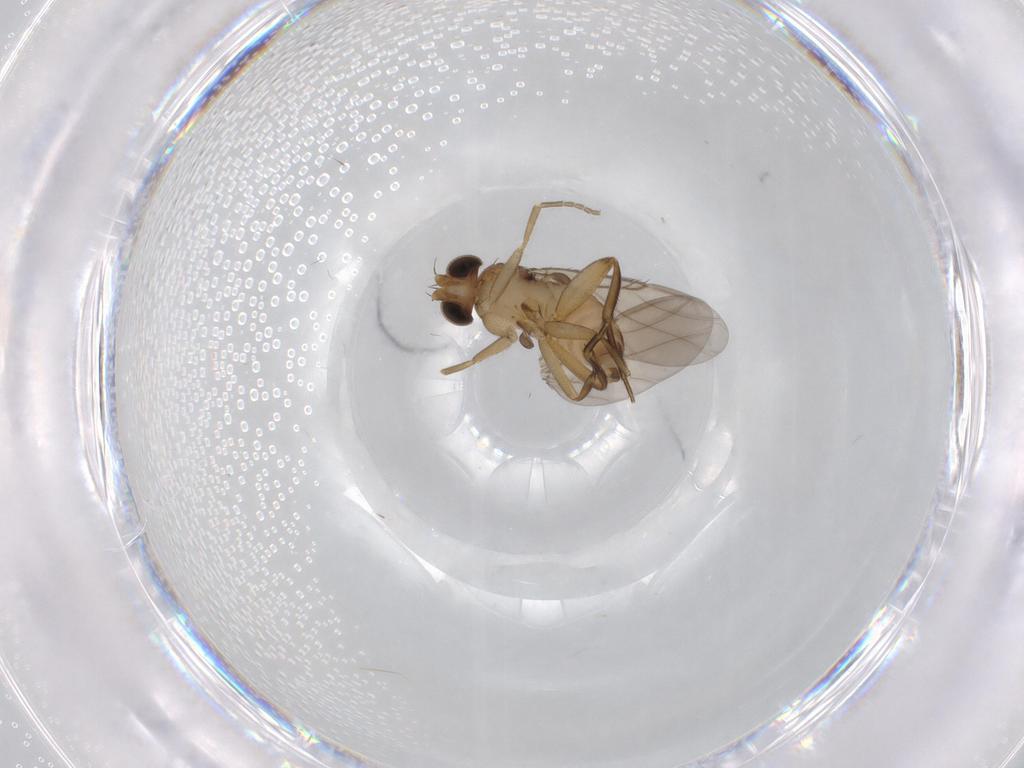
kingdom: Animalia
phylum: Arthropoda
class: Insecta
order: Diptera
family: Phoridae
